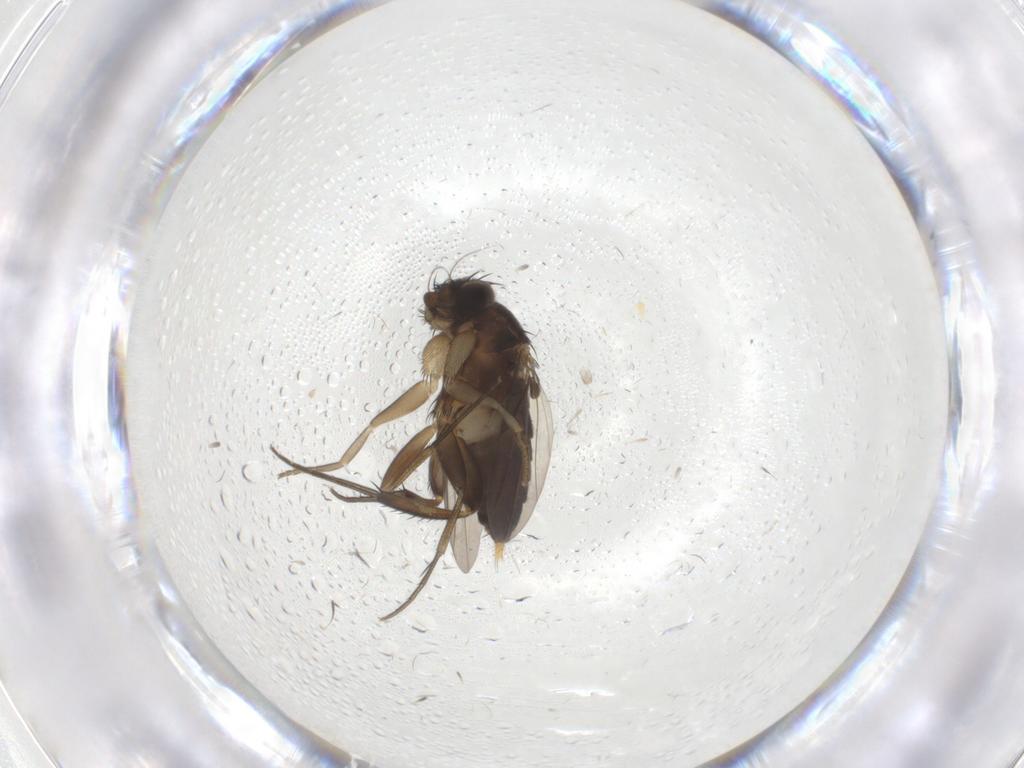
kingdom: Animalia
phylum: Arthropoda
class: Insecta
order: Diptera
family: Phoridae
